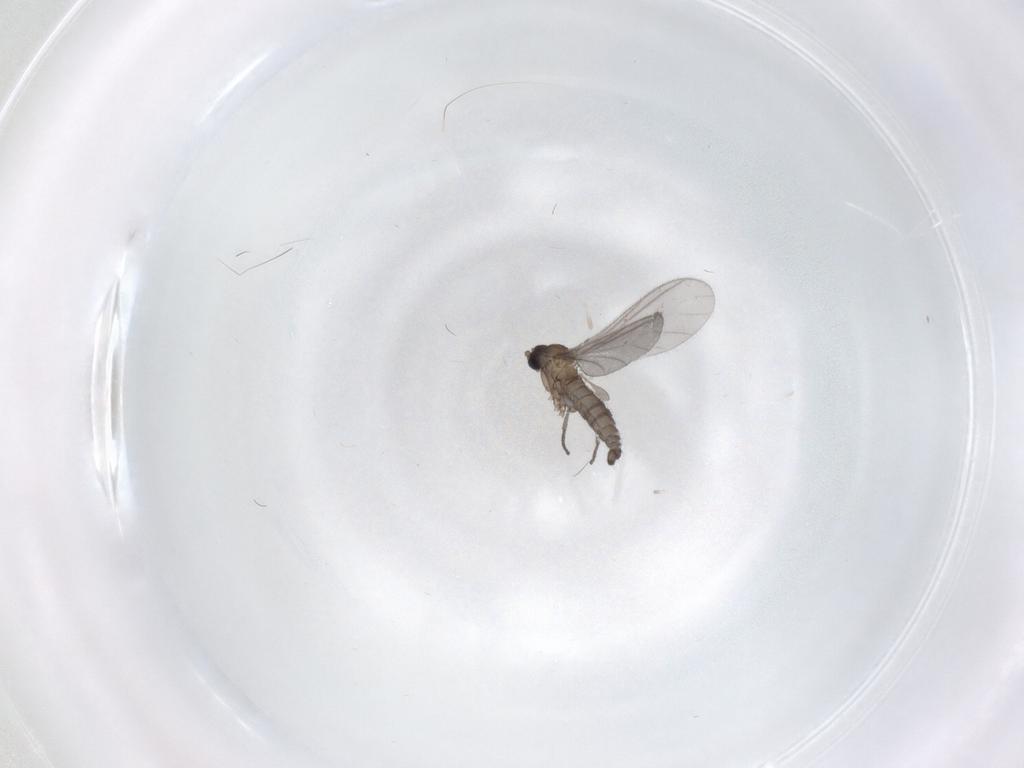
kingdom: Animalia
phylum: Arthropoda
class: Insecta
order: Diptera
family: Sciaridae
